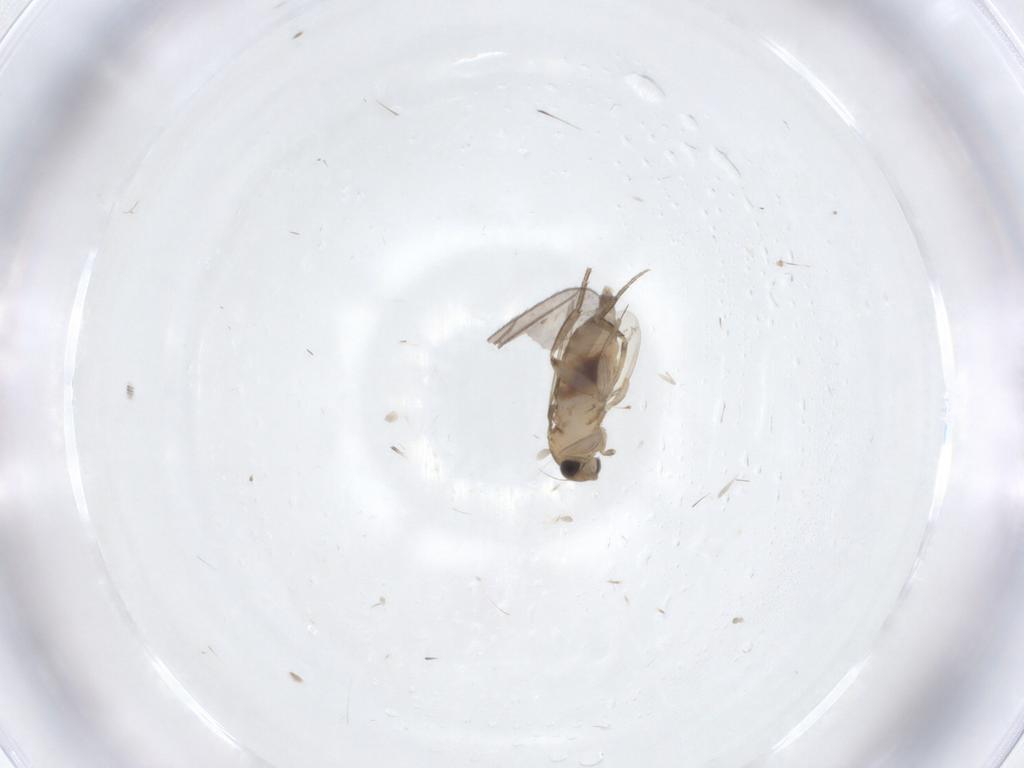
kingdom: Animalia
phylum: Arthropoda
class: Insecta
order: Diptera
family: Phoridae
